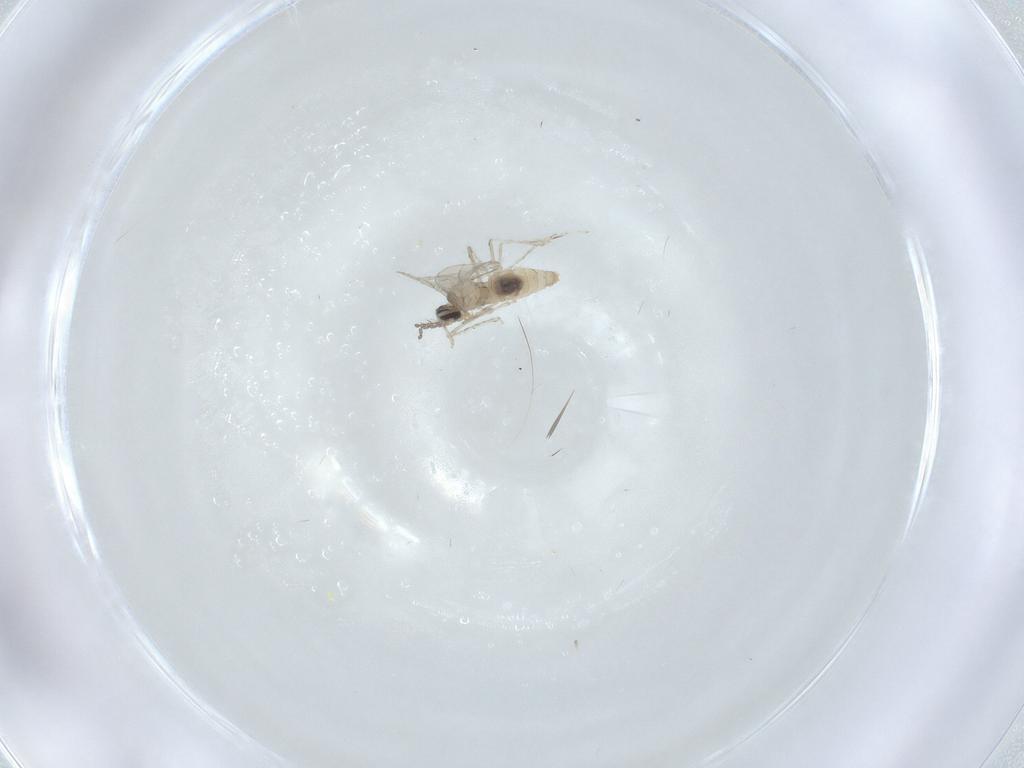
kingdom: Animalia
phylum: Arthropoda
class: Insecta
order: Diptera
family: Cecidomyiidae
